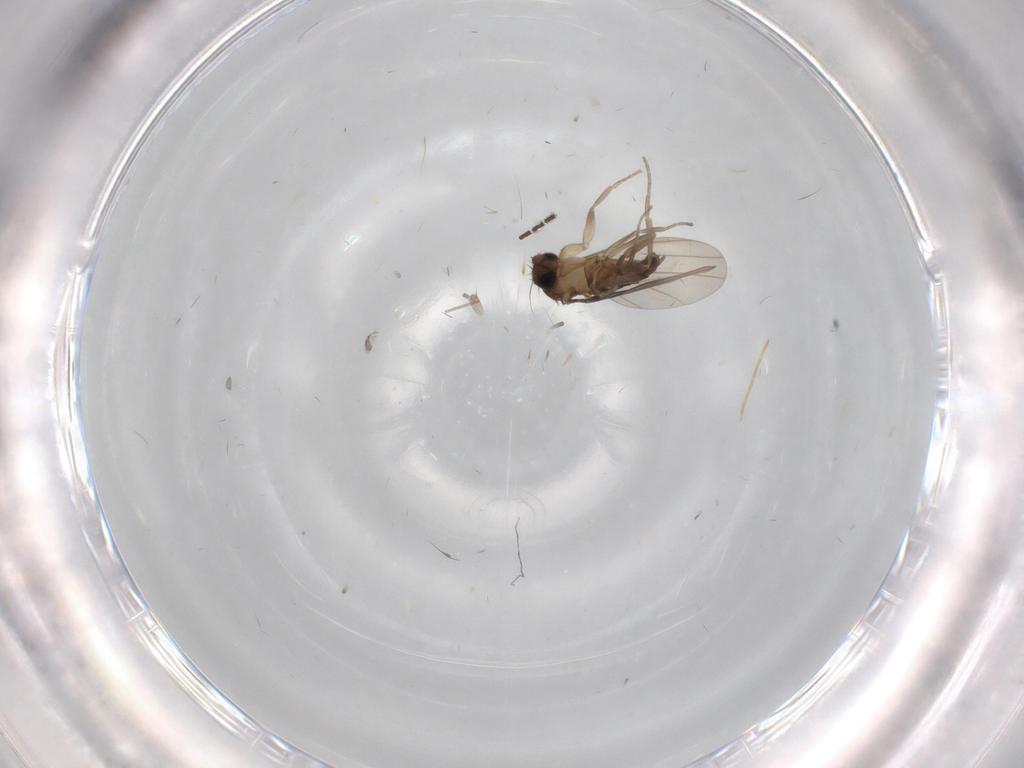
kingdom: Animalia
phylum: Arthropoda
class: Insecta
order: Diptera
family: Phoridae
